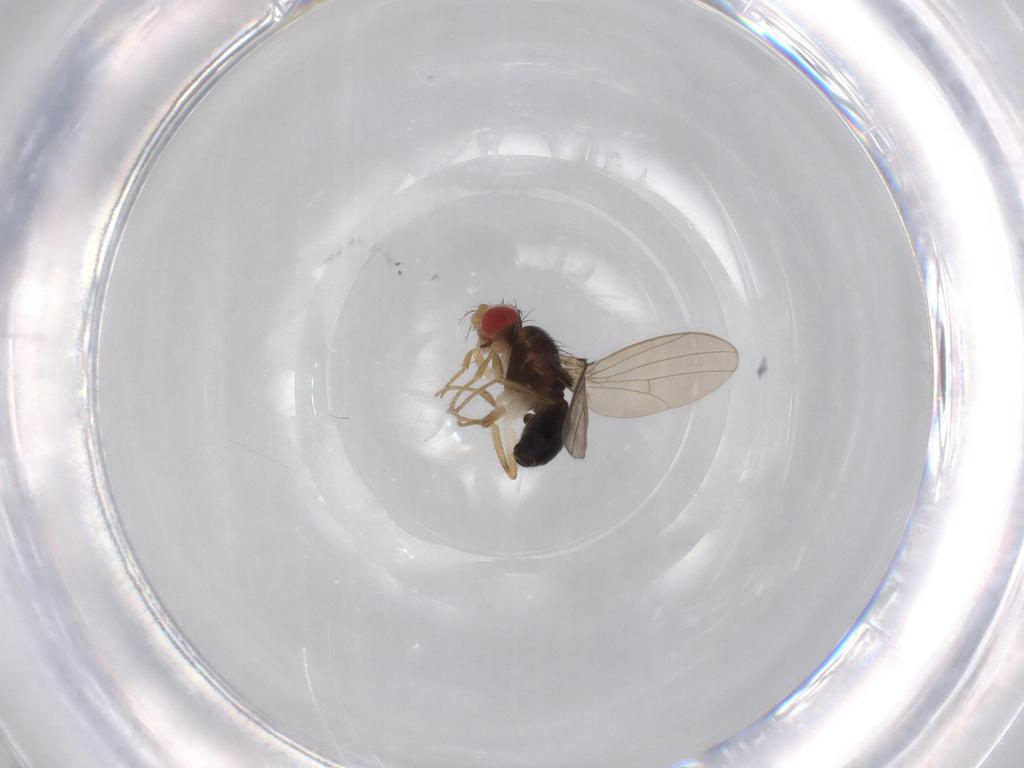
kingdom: Animalia
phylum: Arthropoda
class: Insecta
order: Diptera
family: Drosophilidae
